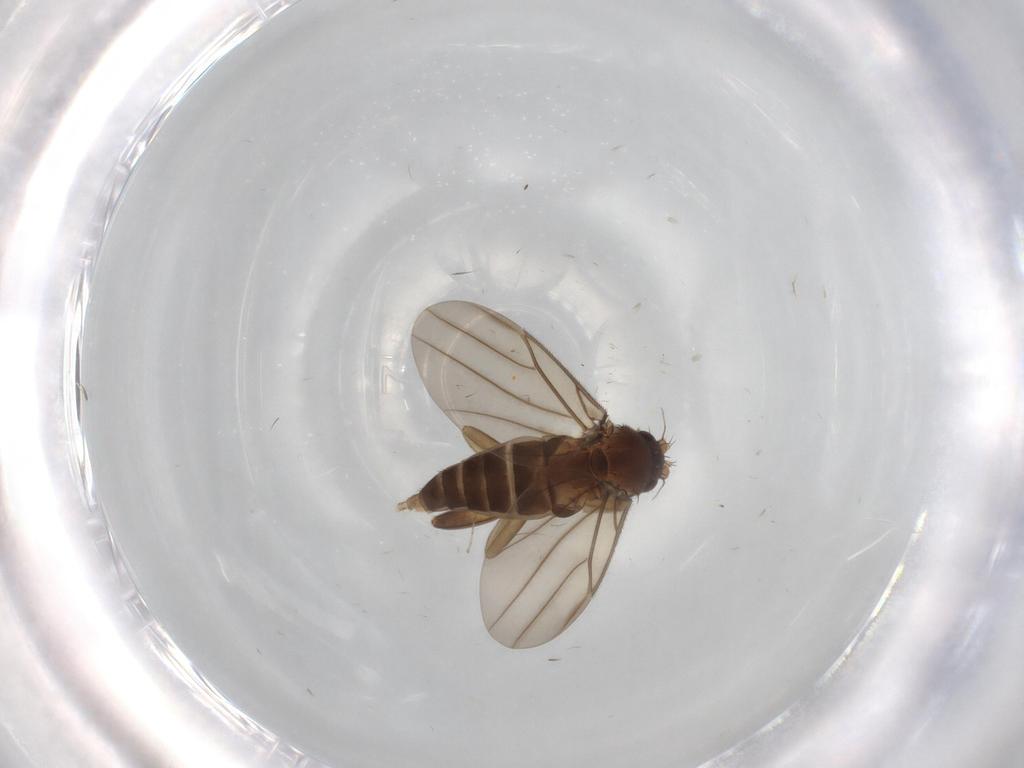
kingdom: Animalia
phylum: Arthropoda
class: Insecta
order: Diptera
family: Cecidomyiidae
